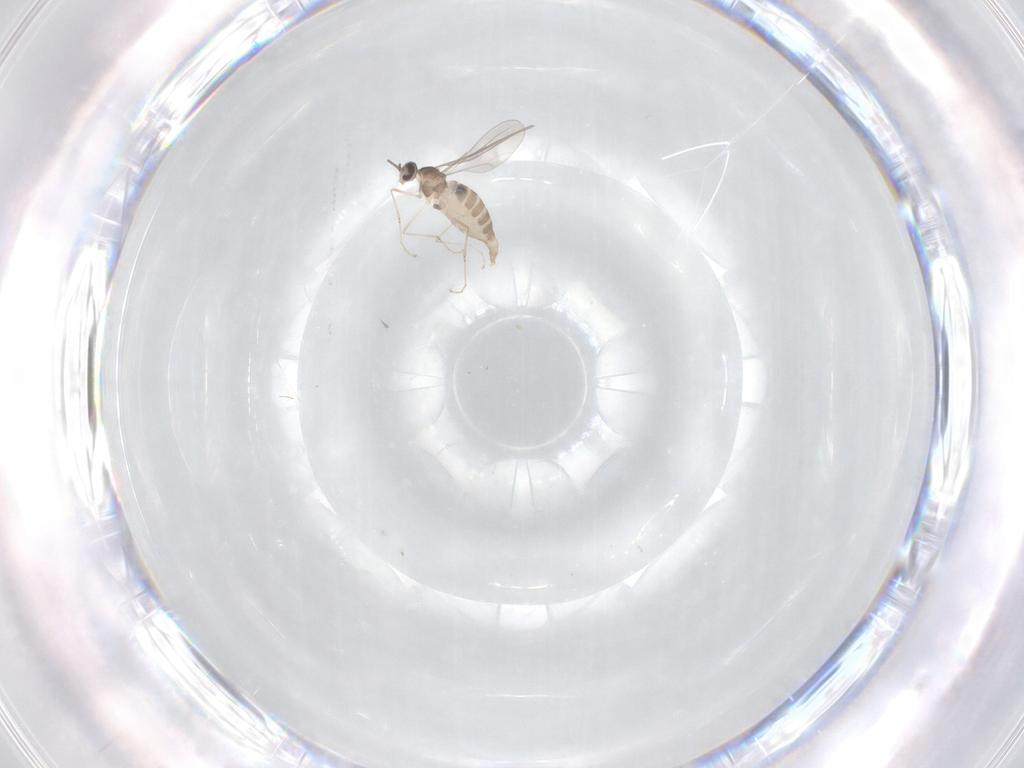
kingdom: Animalia
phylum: Arthropoda
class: Insecta
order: Diptera
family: Cecidomyiidae
